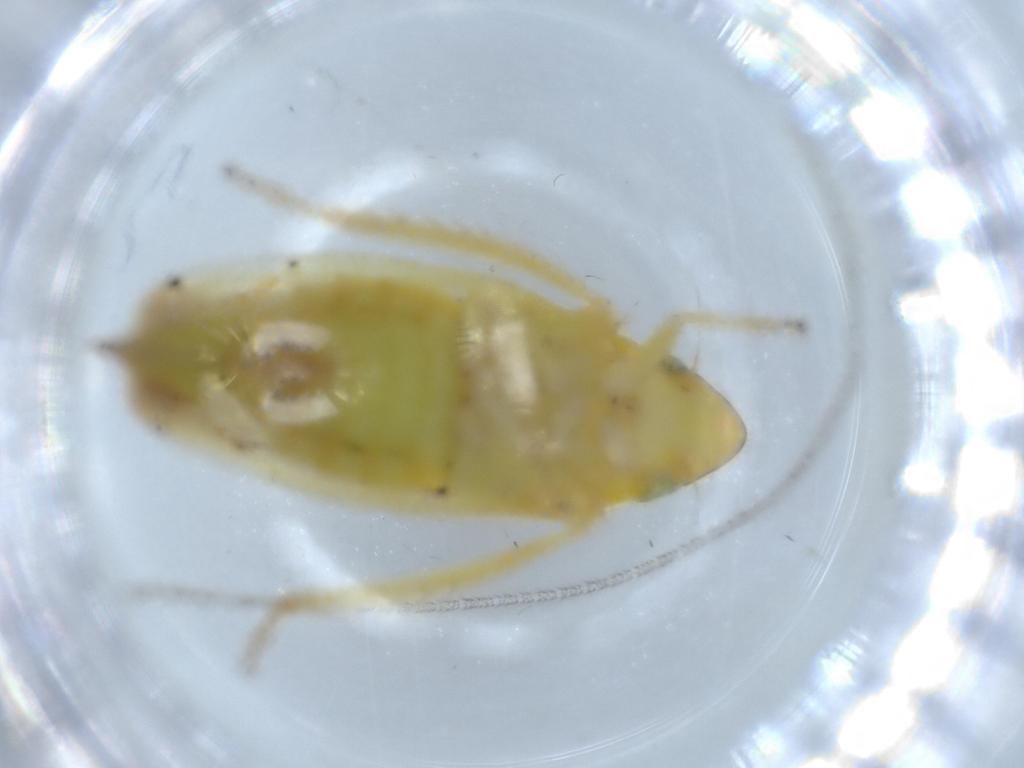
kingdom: Animalia
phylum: Arthropoda
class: Insecta
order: Hemiptera
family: Cicadellidae
